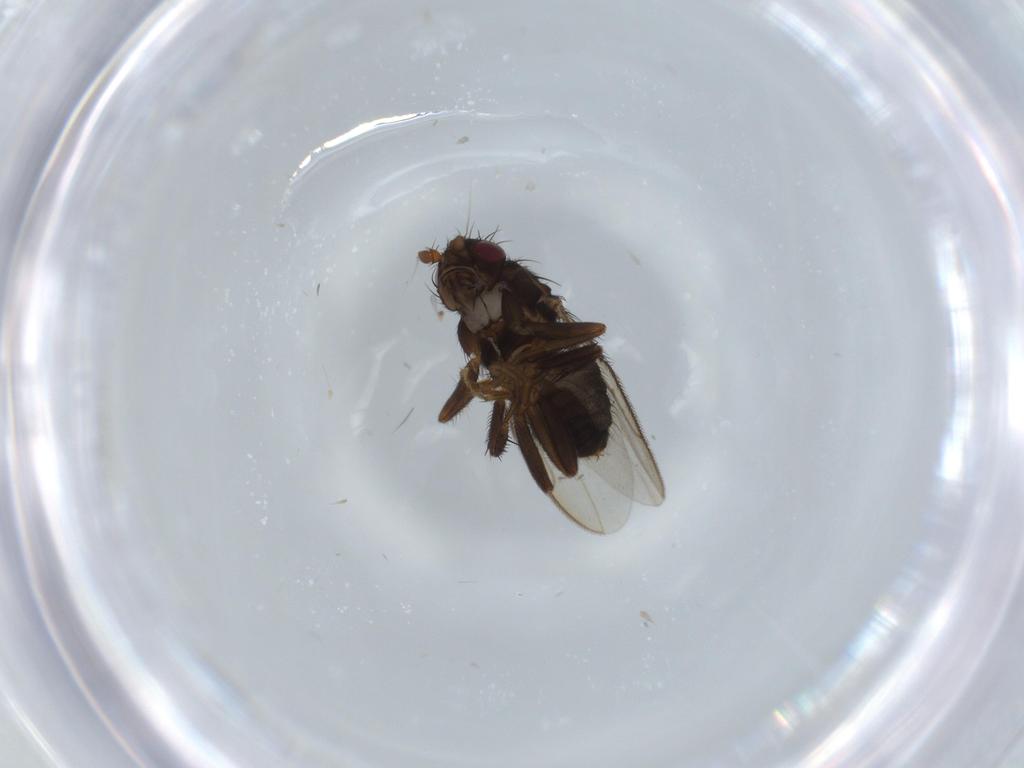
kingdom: Animalia
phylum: Arthropoda
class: Insecta
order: Diptera
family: Sphaeroceridae
